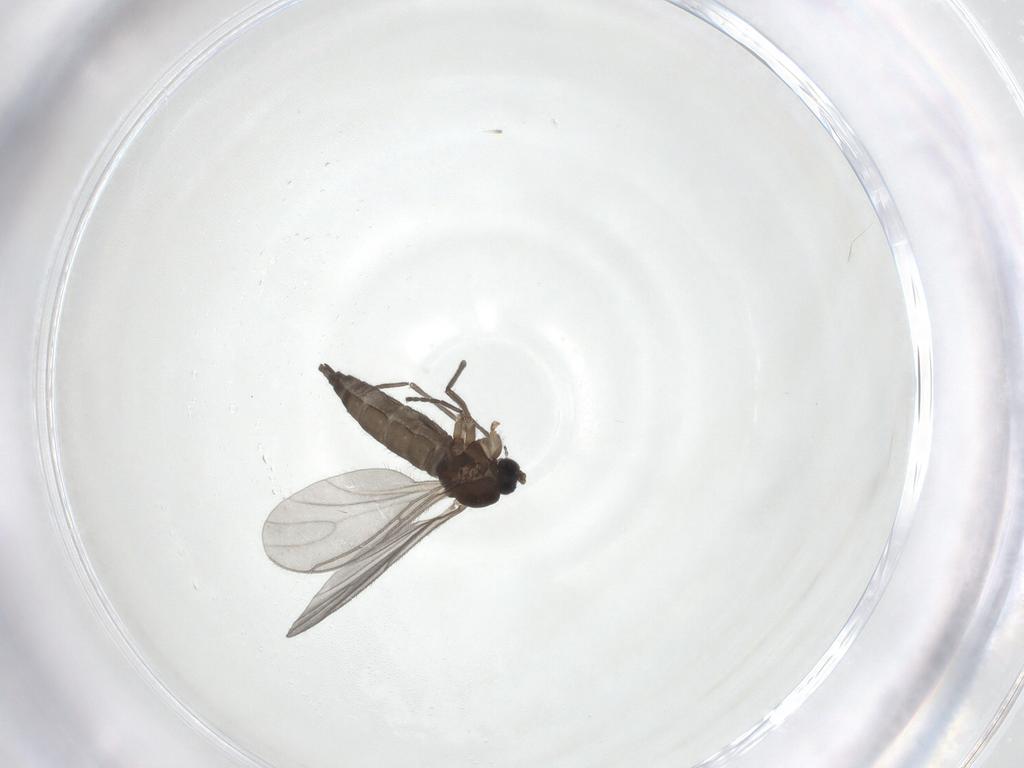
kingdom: Animalia
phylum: Arthropoda
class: Insecta
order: Diptera
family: Sciaridae
